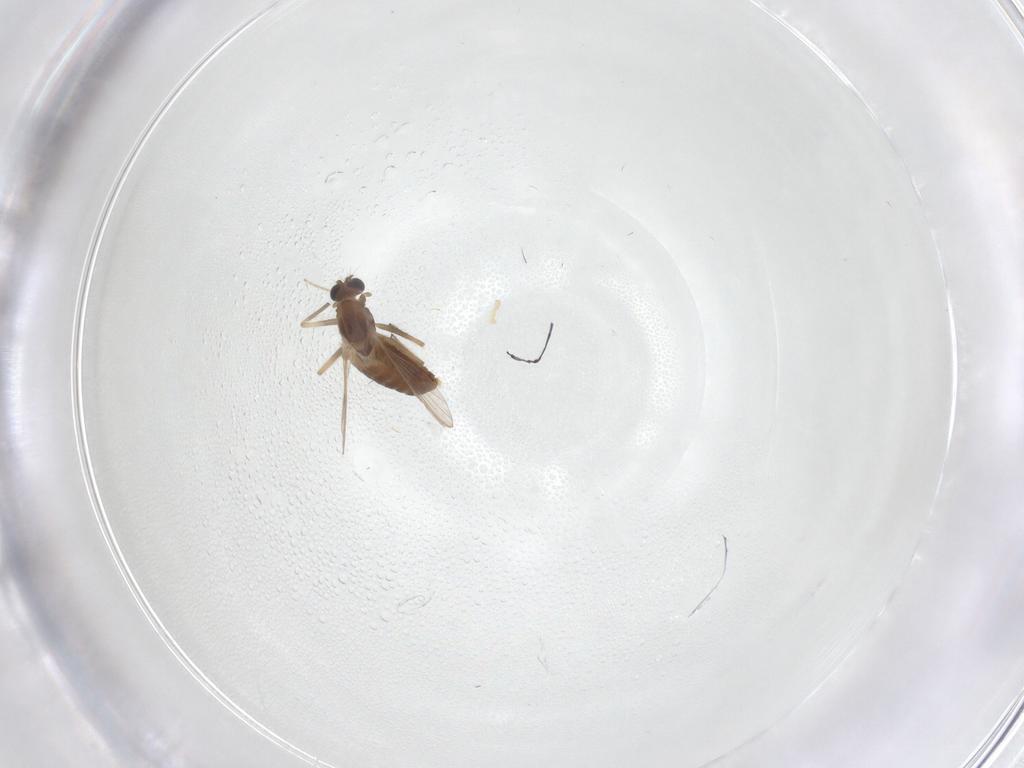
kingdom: Animalia
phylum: Arthropoda
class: Insecta
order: Diptera
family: Chironomidae
